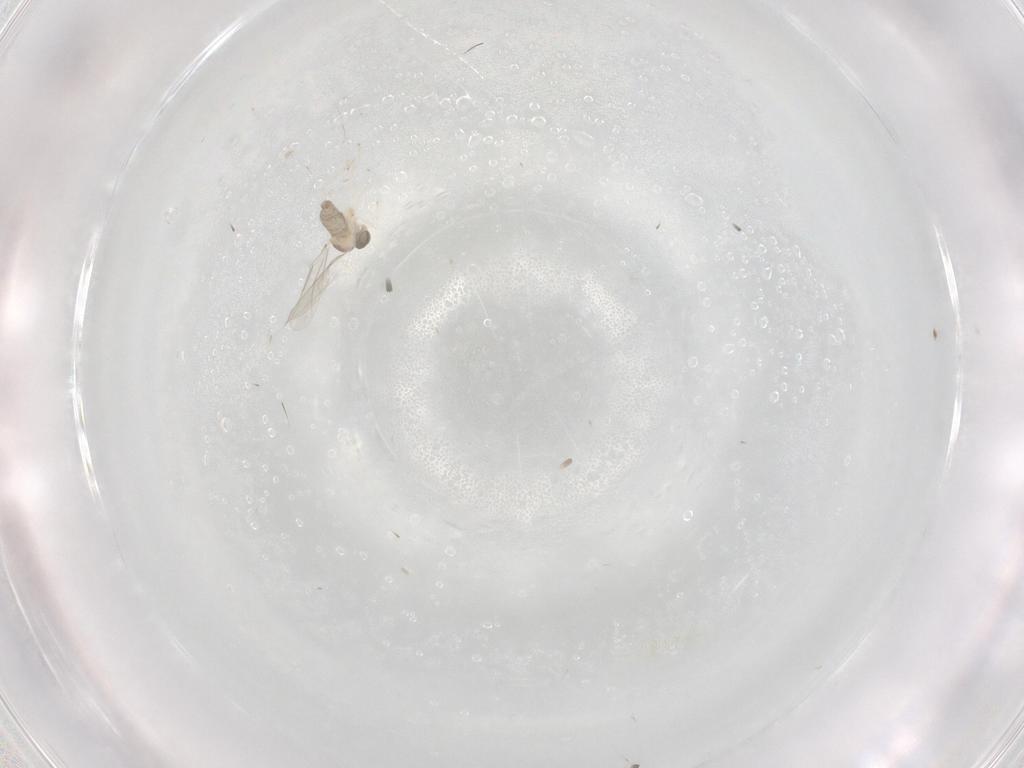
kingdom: Animalia
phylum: Arthropoda
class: Insecta
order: Diptera
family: Cecidomyiidae
